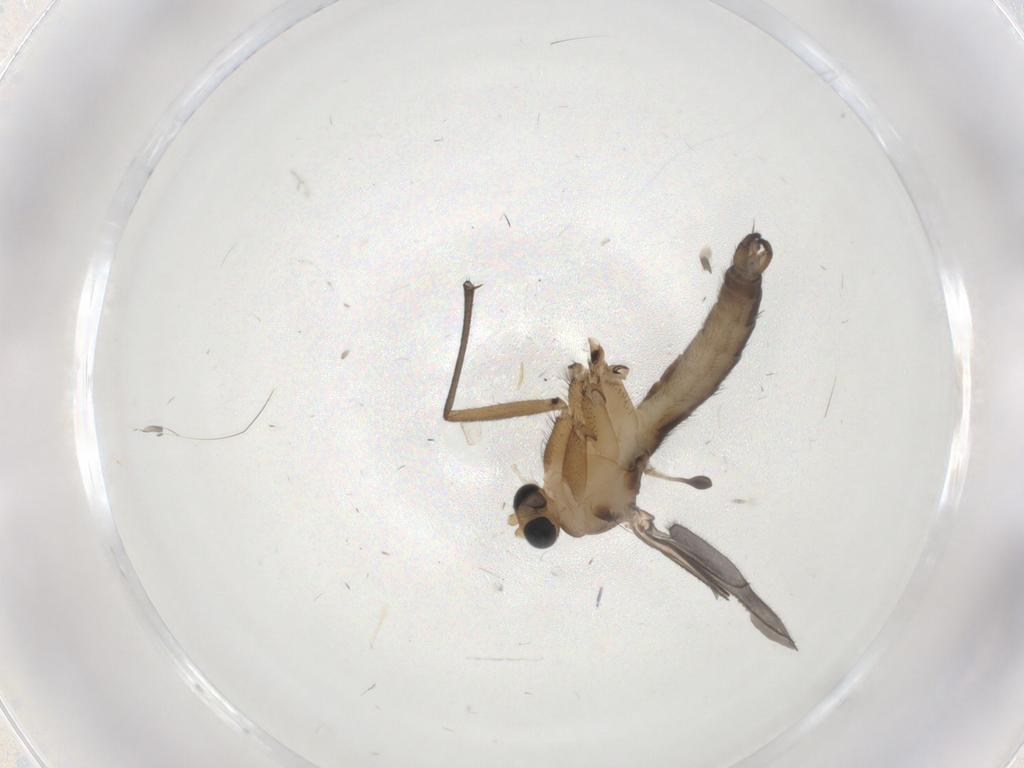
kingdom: Animalia
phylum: Arthropoda
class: Insecta
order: Diptera
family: Sciaridae
